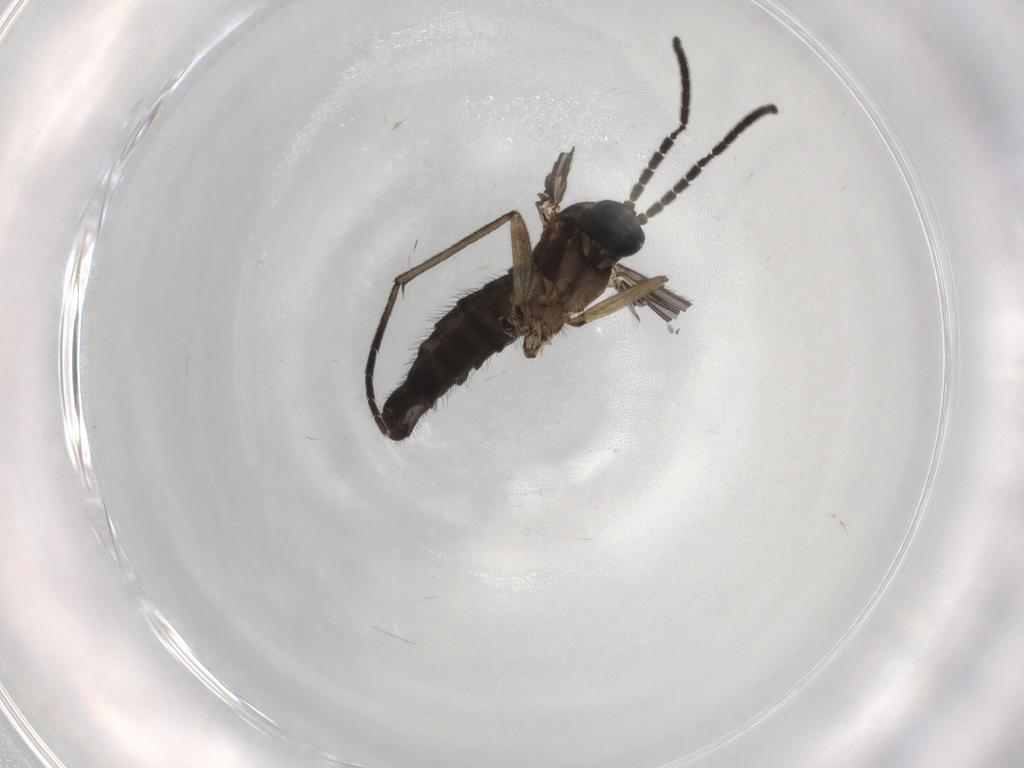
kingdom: Animalia
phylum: Arthropoda
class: Insecta
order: Diptera
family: Sciaridae
